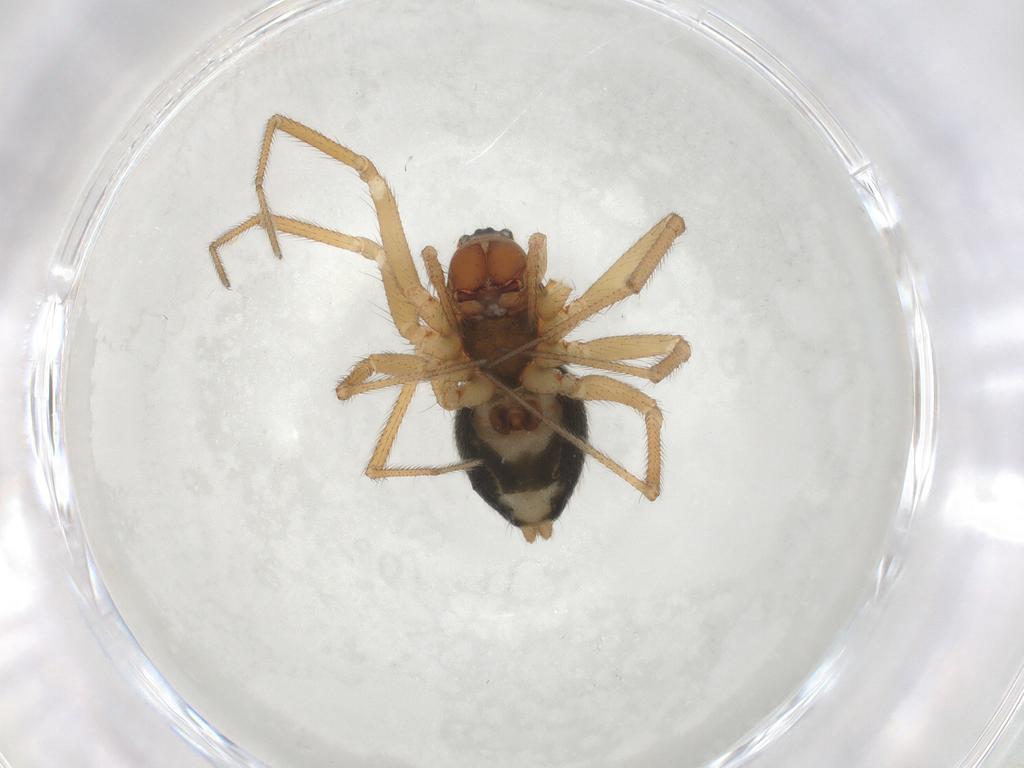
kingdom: Animalia
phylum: Arthropoda
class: Arachnida
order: Araneae
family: Linyphiidae
